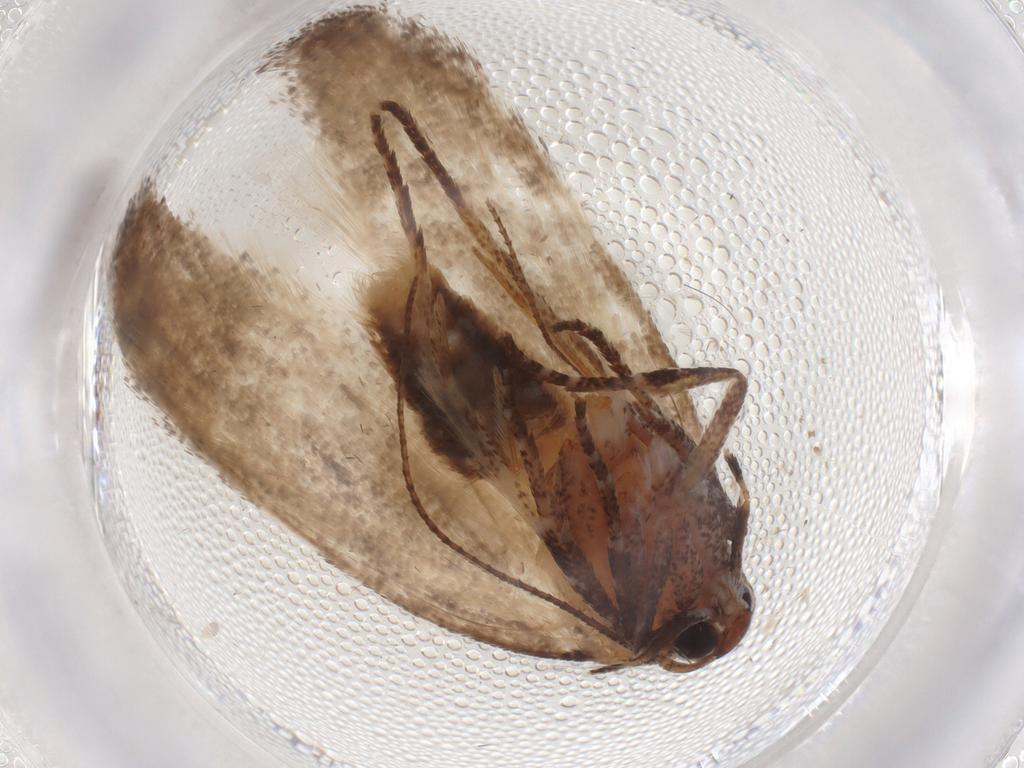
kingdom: Animalia
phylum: Arthropoda
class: Insecta
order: Lepidoptera
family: Cosmopterigidae
